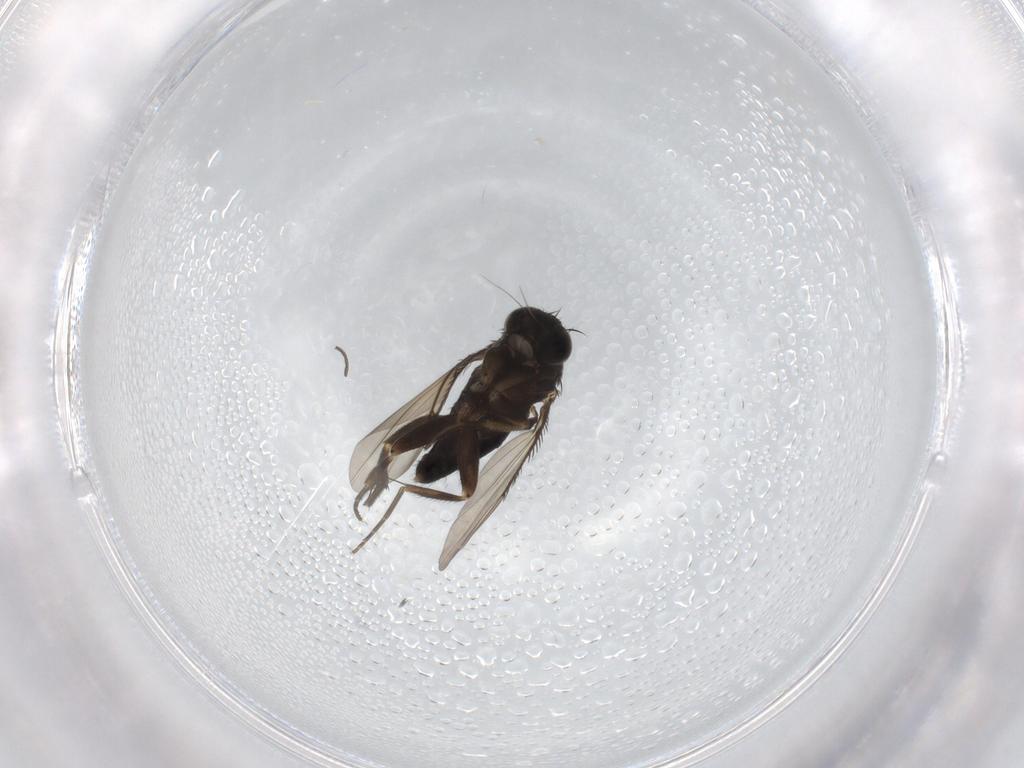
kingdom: Animalia
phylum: Arthropoda
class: Insecta
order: Diptera
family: Phoridae
